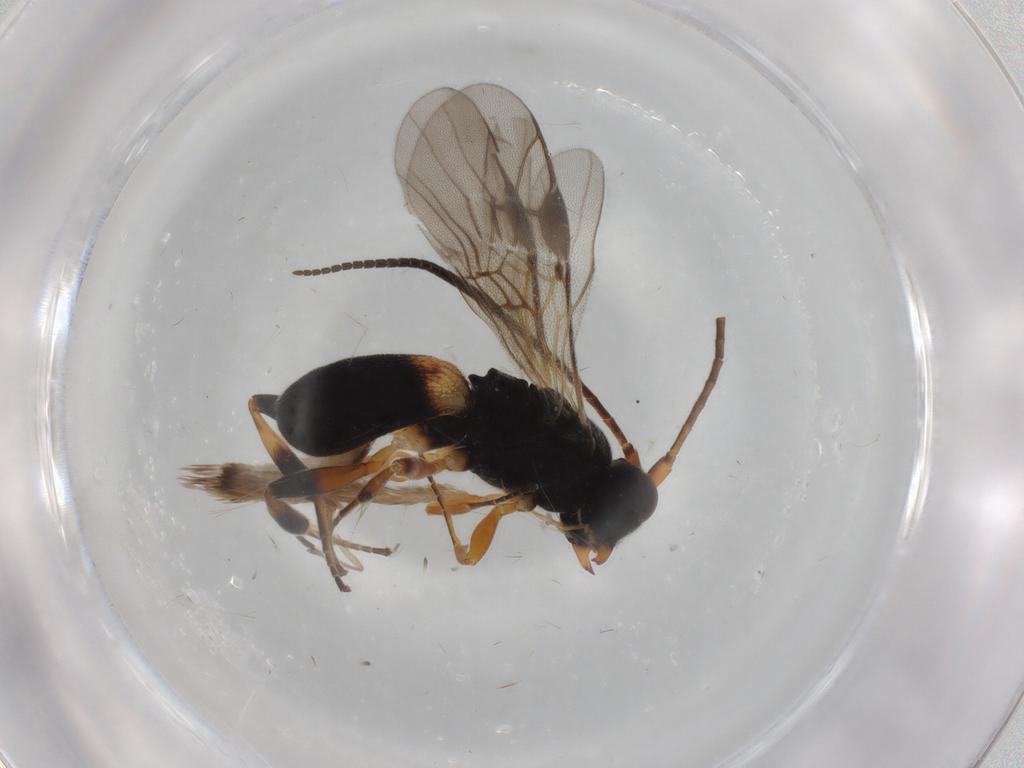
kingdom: Animalia
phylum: Arthropoda
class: Insecta
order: Hymenoptera
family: Braconidae
